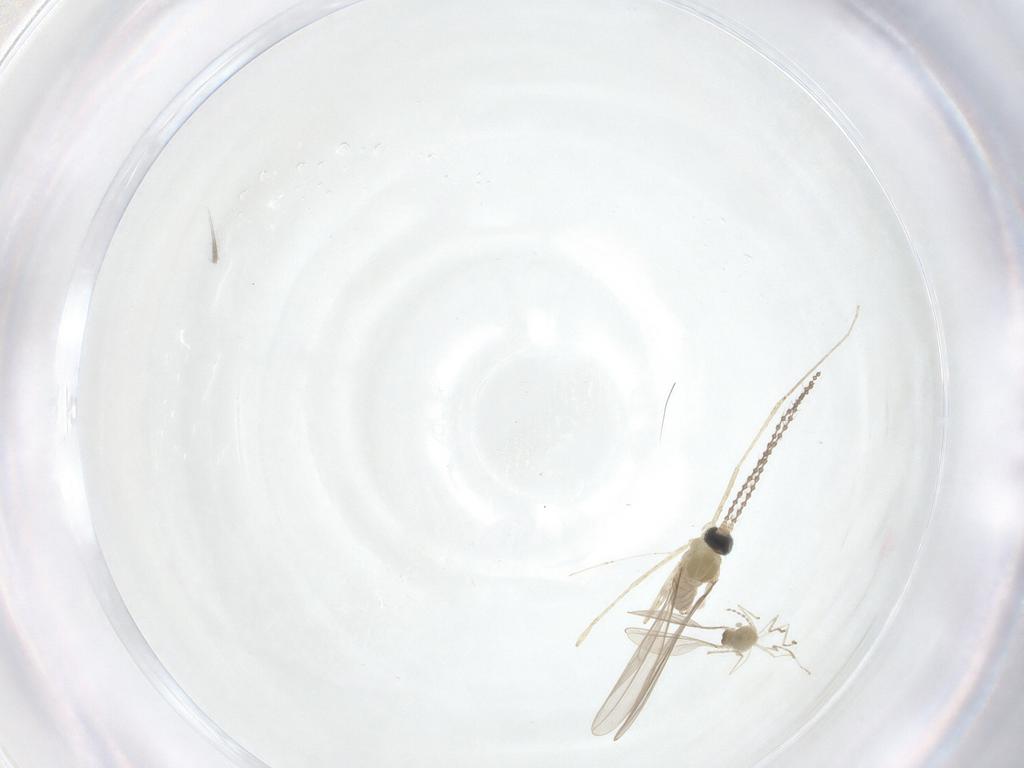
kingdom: Animalia
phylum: Arthropoda
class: Insecta
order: Diptera
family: Cecidomyiidae
